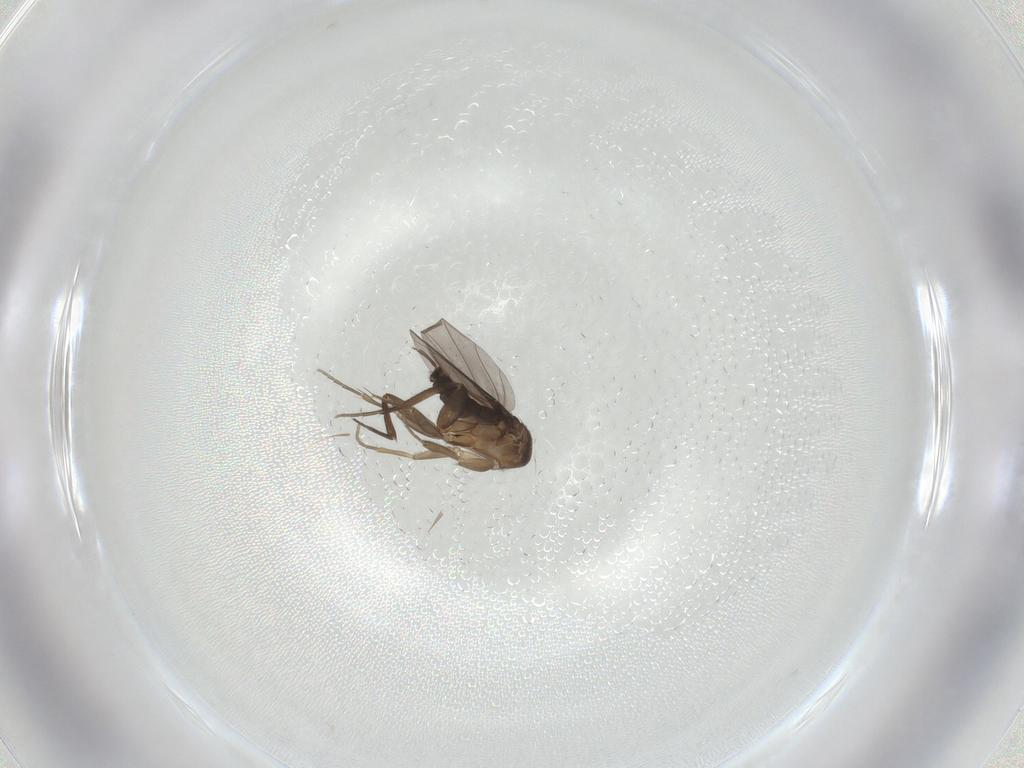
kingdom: Animalia
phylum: Arthropoda
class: Insecta
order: Diptera
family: Phoridae
